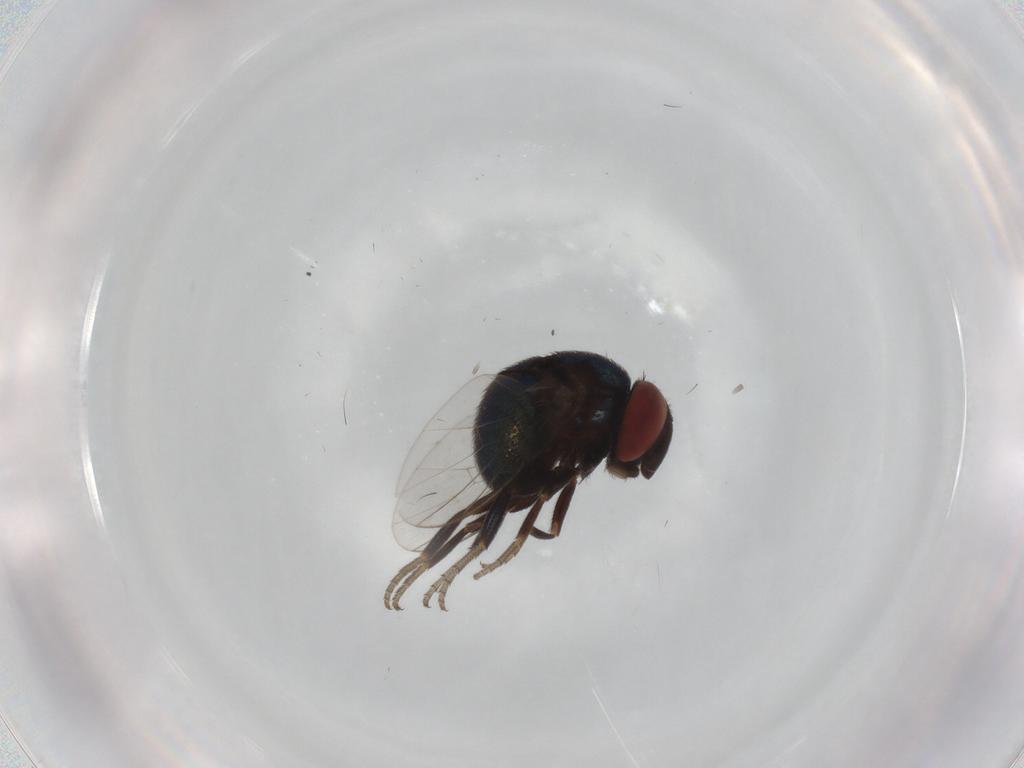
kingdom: Animalia
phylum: Arthropoda
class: Insecta
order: Diptera
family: Cryptochetidae
